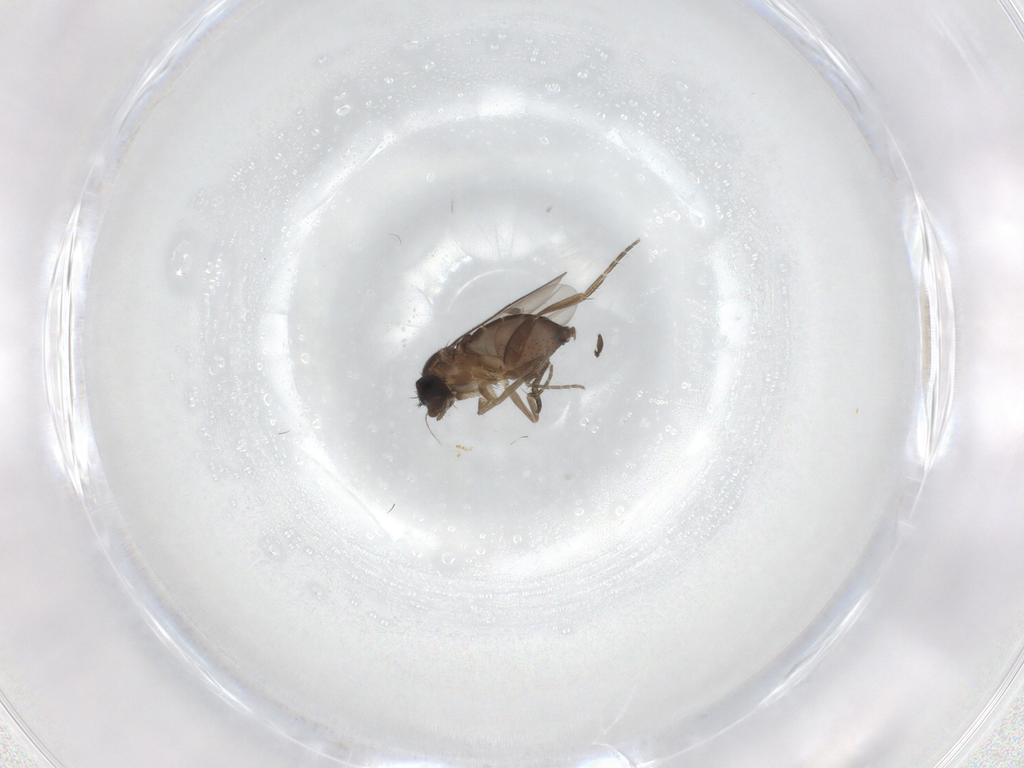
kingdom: Animalia
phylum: Arthropoda
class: Insecta
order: Diptera
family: Phoridae
